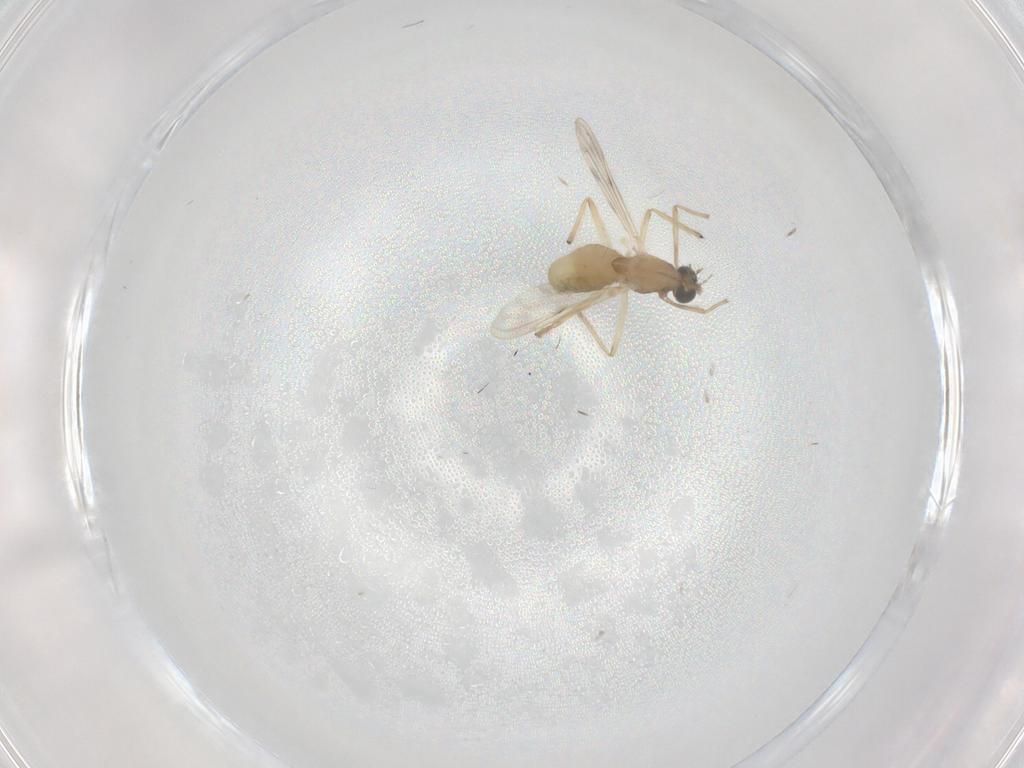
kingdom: Animalia
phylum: Arthropoda
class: Insecta
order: Diptera
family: Chironomidae
